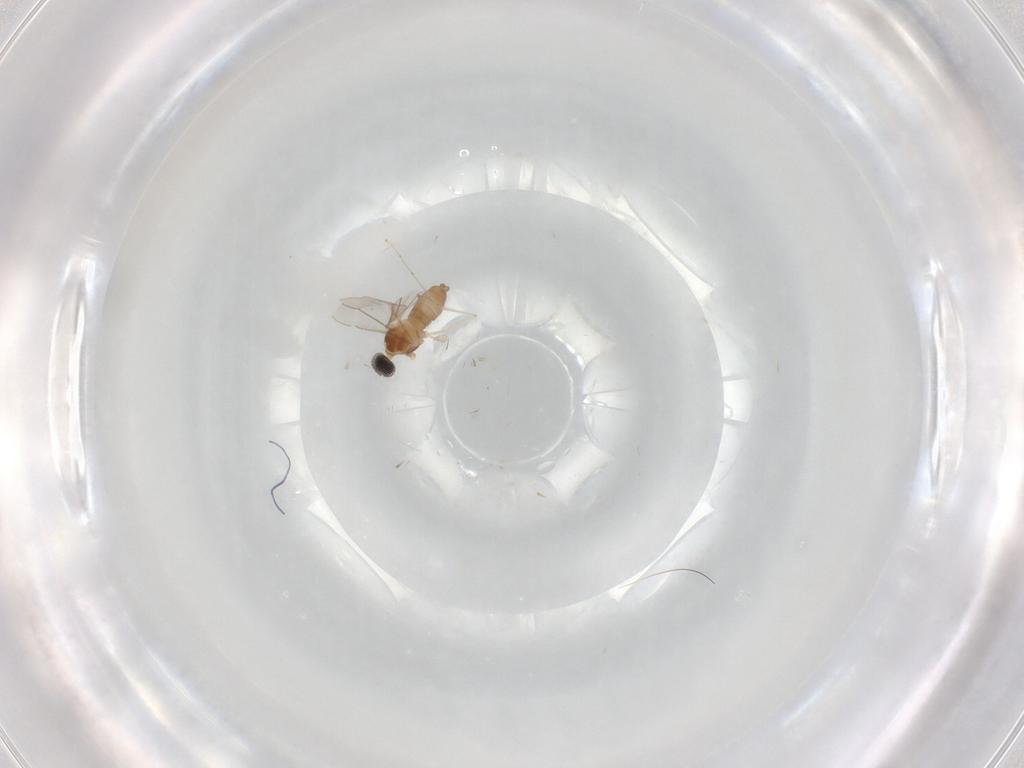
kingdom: Animalia
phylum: Arthropoda
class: Insecta
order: Diptera
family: Cecidomyiidae
